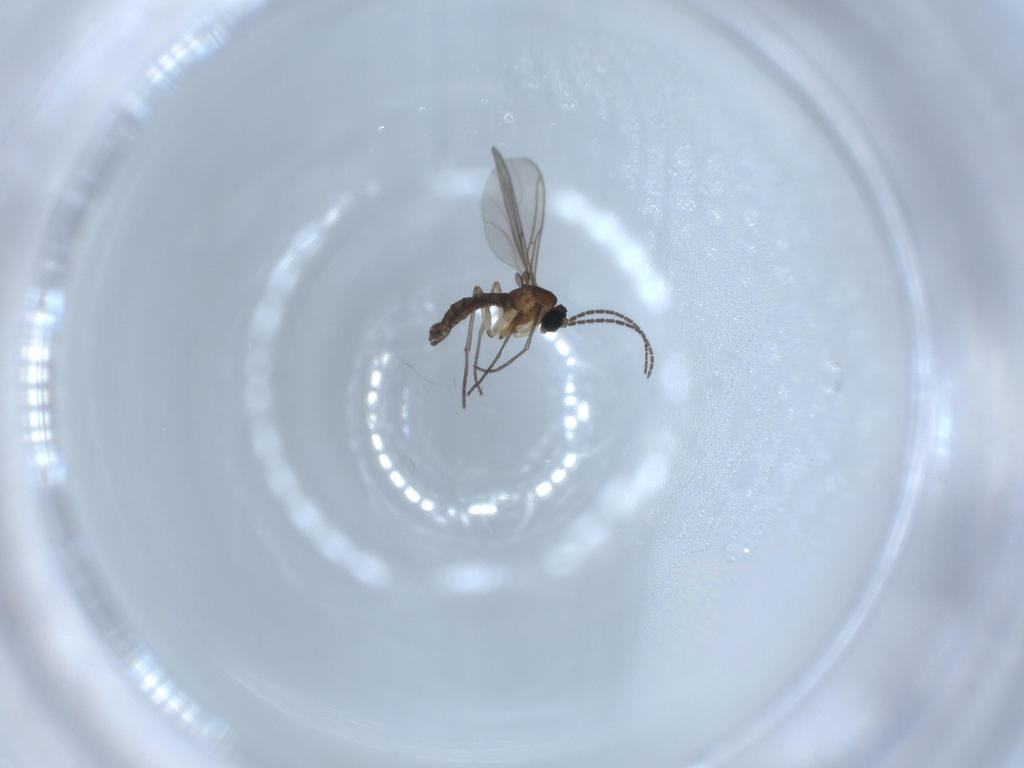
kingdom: Animalia
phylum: Arthropoda
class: Insecta
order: Diptera
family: Sciaridae
